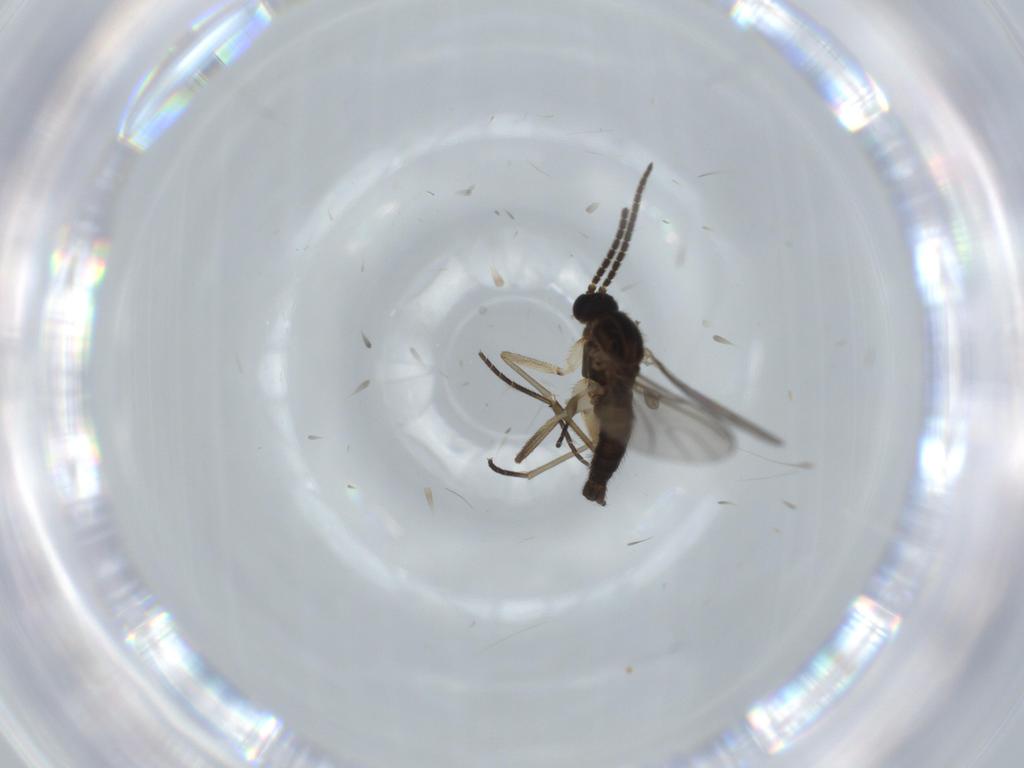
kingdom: Animalia
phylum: Arthropoda
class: Insecta
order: Diptera
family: Sciaridae
